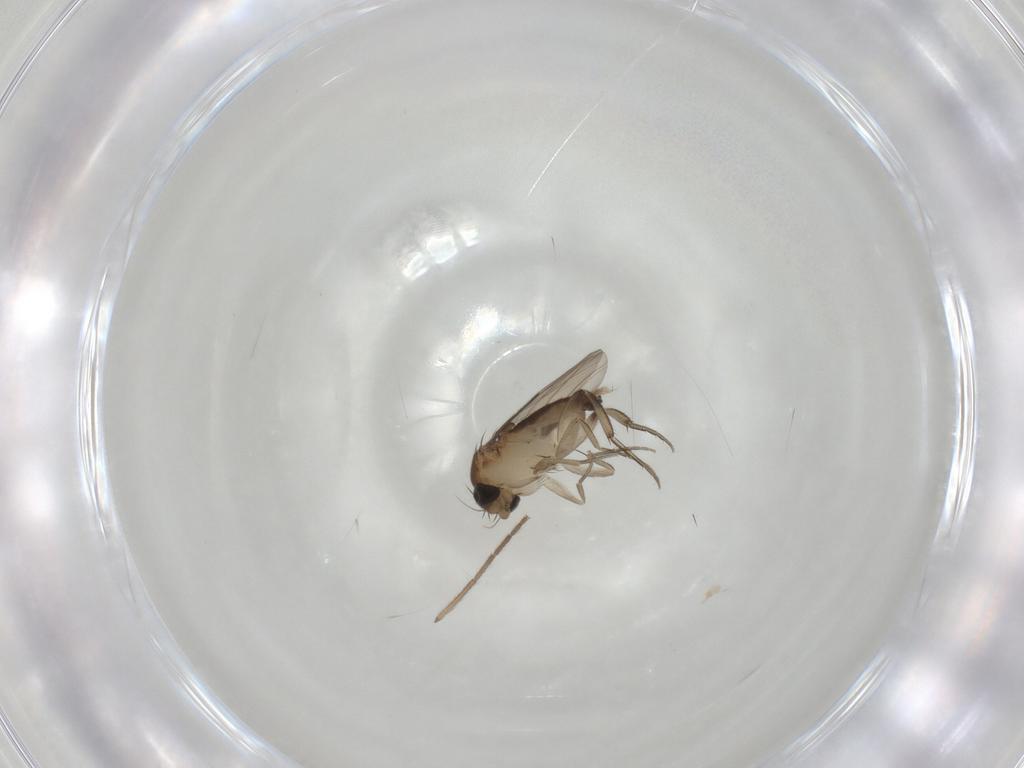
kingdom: Animalia
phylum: Arthropoda
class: Insecta
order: Diptera
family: Phoridae
